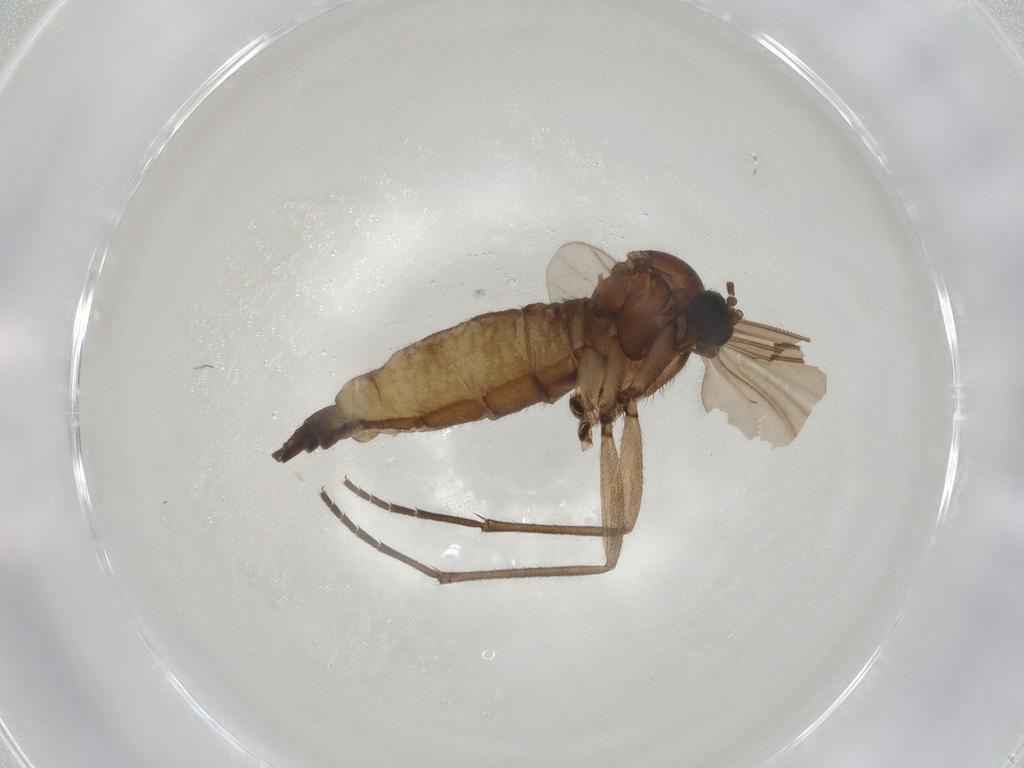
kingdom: Animalia
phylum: Arthropoda
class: Insecta
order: Diptera
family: Sciaridae
